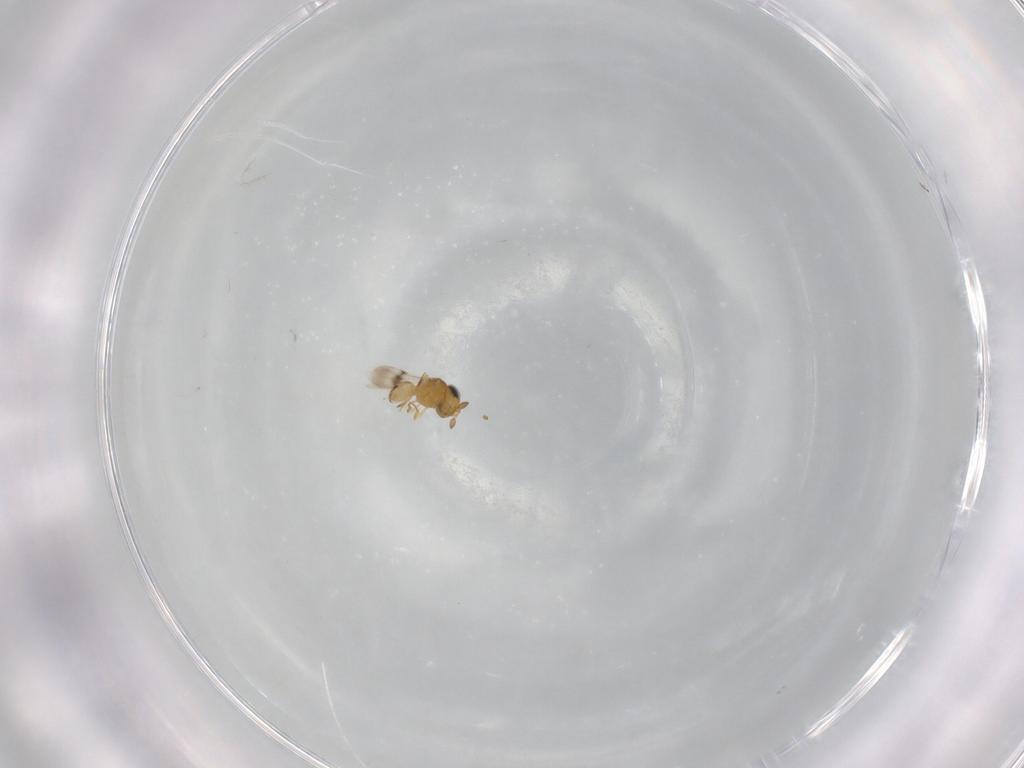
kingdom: Animalia
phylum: Arthropoda
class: Insecta
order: Hymenoptera
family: Scelionidae
